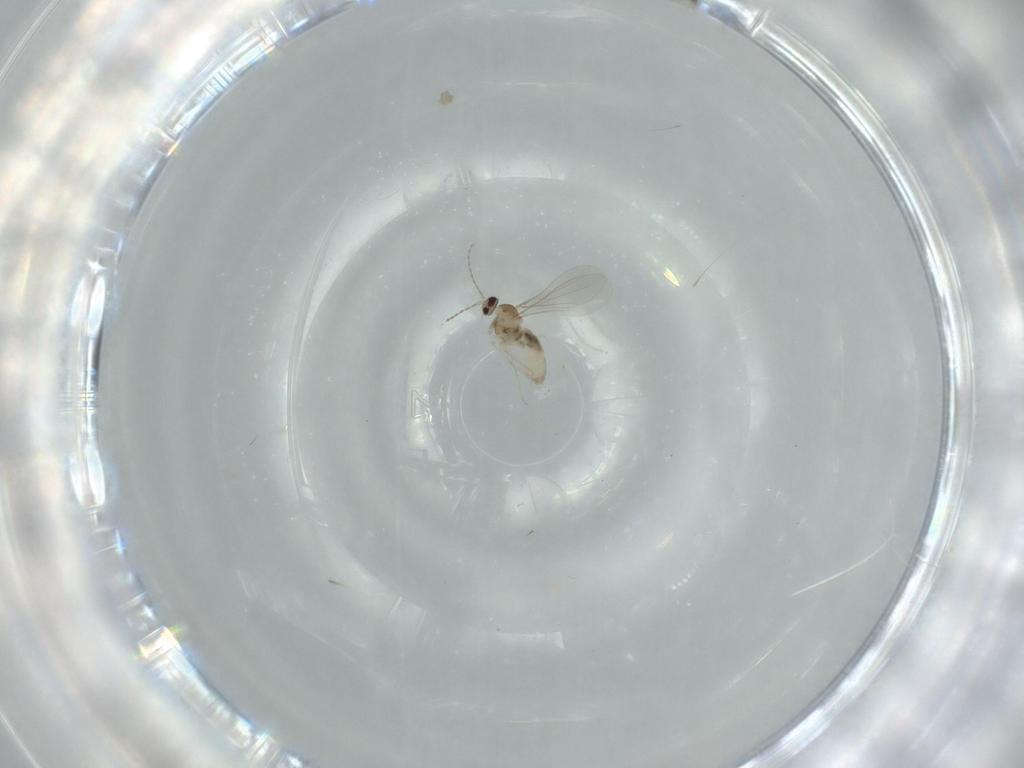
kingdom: Animalia
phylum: Arthropoda
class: Insecta
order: Diptera
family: Cecidomyiidae
